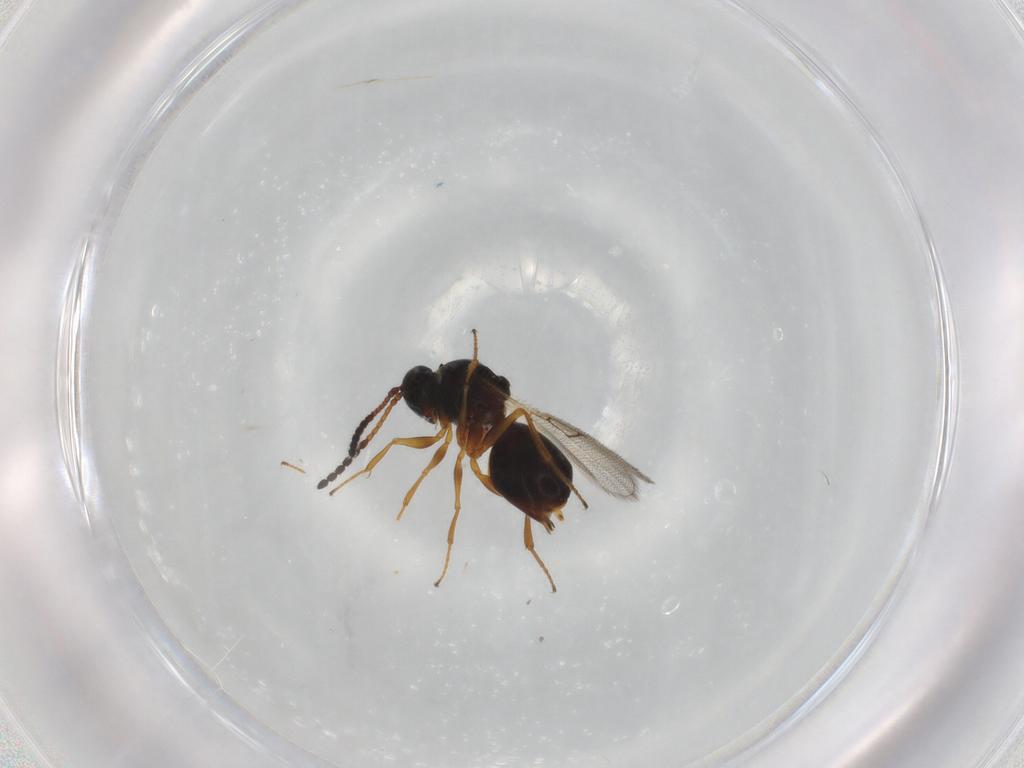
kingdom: Animalia
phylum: Arthropoda
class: Insecta
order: Hymenoptera
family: Figitidae
